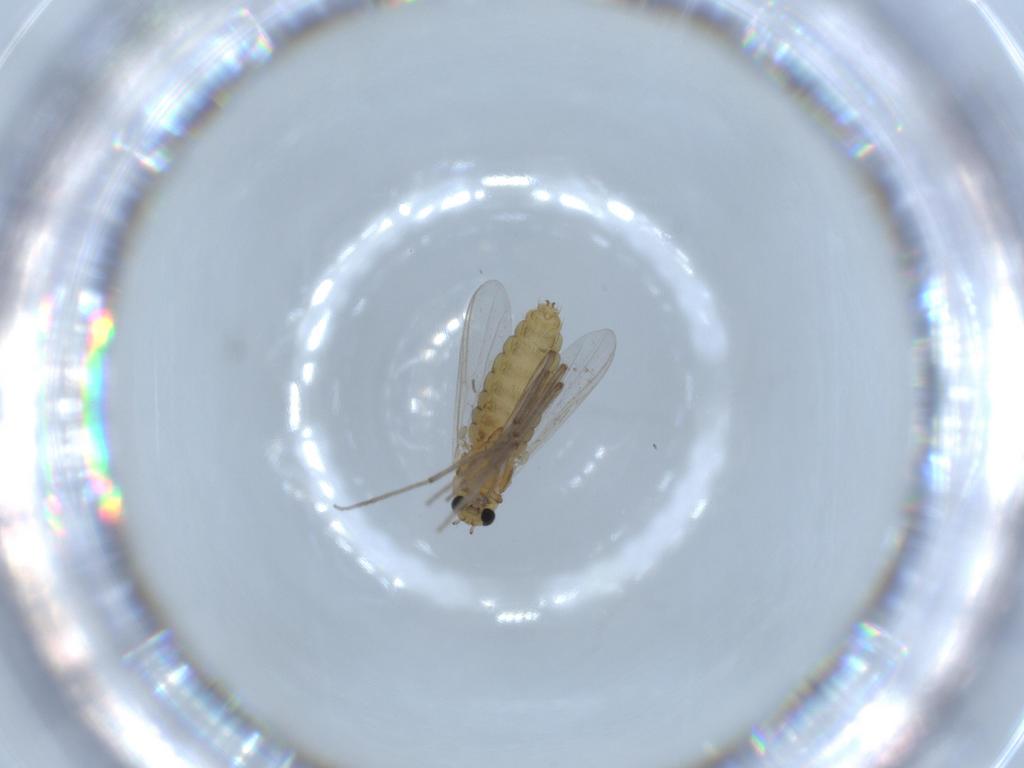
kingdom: Animalia
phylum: Arthropoda
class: Insecta
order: Diptera
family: Chironomidae
